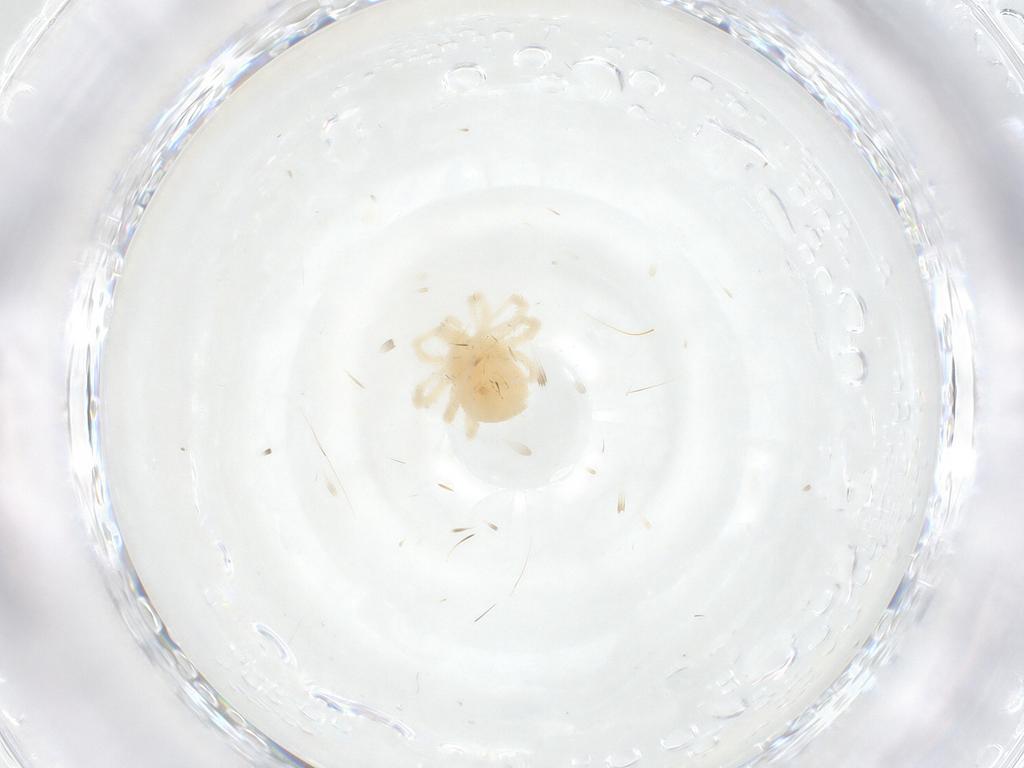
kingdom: Animalia
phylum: Arthropoda
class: Arachnida
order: Trombidiformes
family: Anystidae
